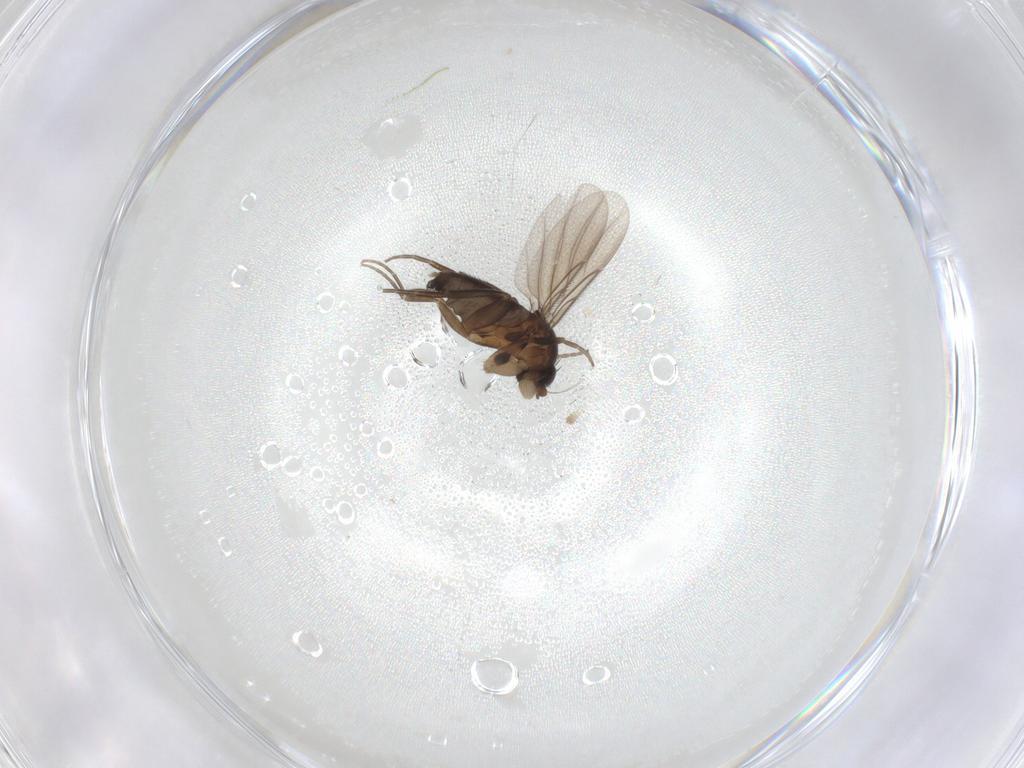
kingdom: Animalia
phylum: Arthropoda
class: Insecta
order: Diptera
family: Phoridae
